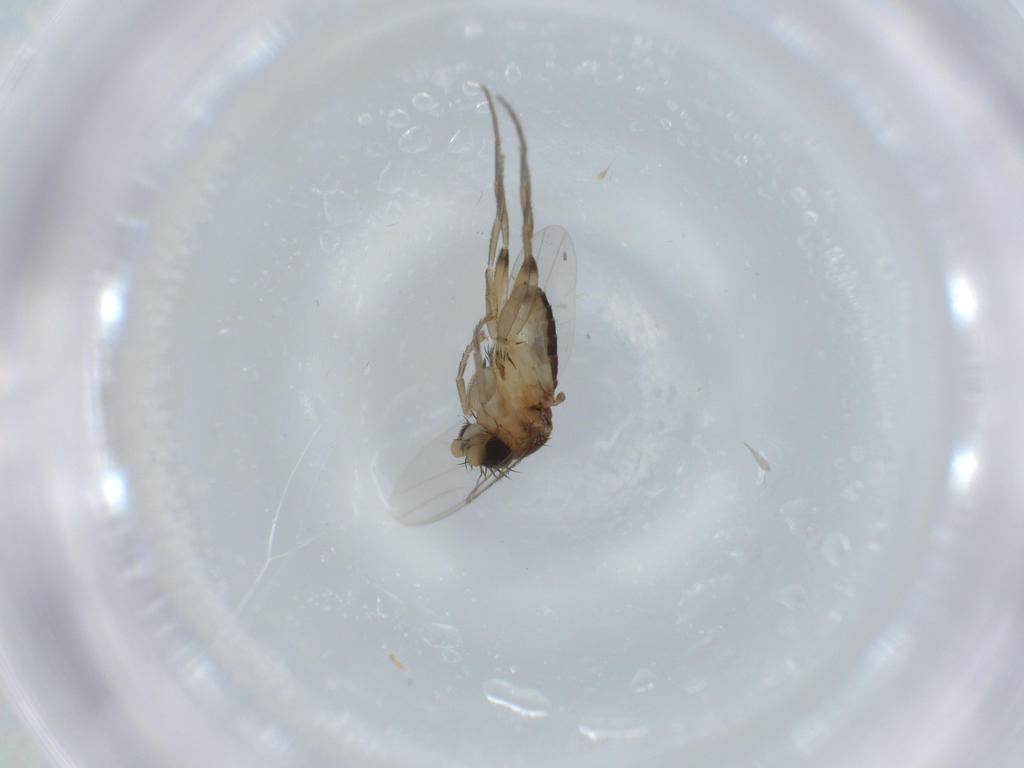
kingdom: Animalia
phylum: Arthropoda
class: Insecta
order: Diptera
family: Phoridae
